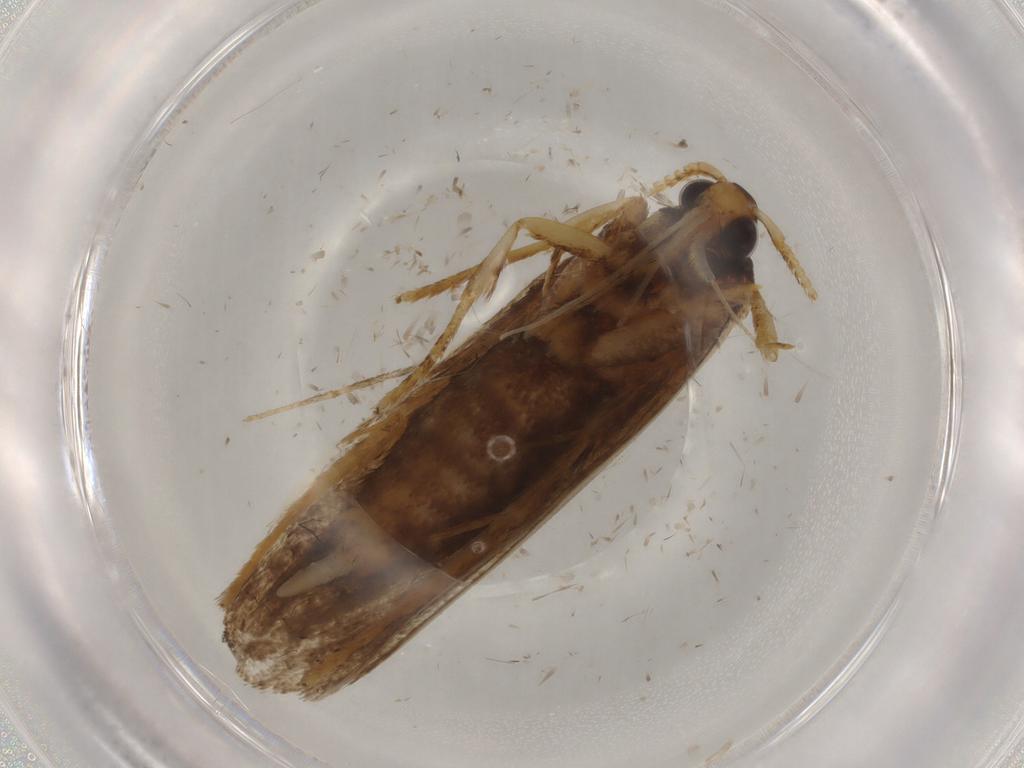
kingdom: Animalia
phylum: Arthropoda
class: Insecta
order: Lepidoptera
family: Lecithoceridae
